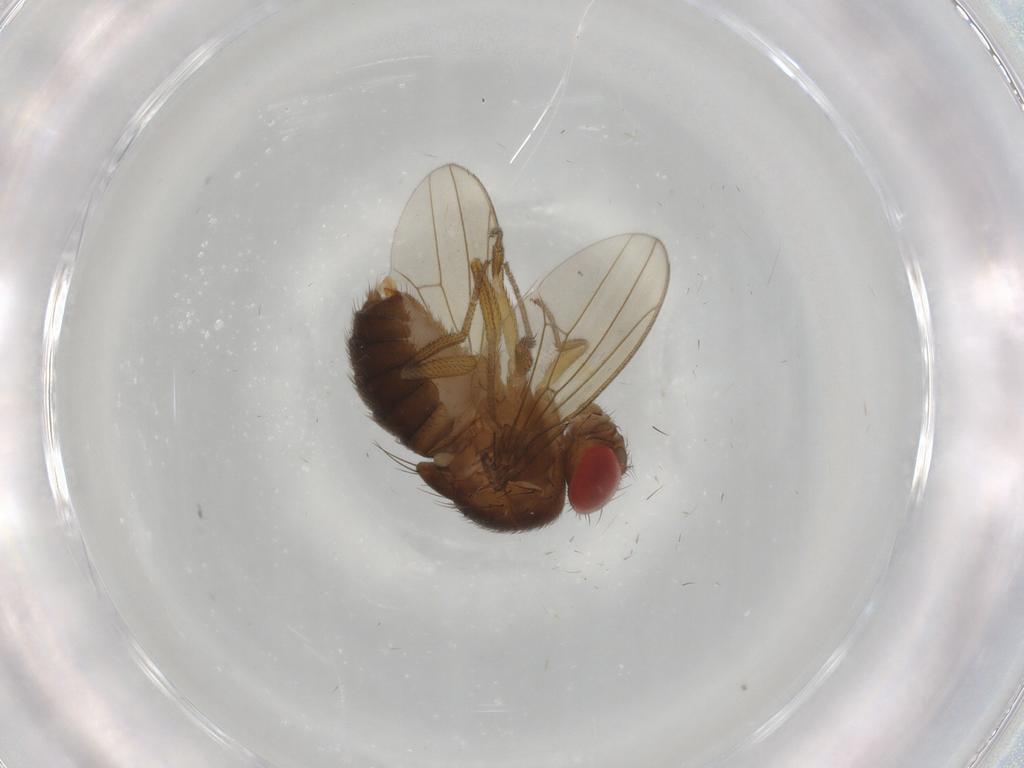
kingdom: Animalia
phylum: Arthropoda
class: Insecta
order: Diptera
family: Drosophilidae
